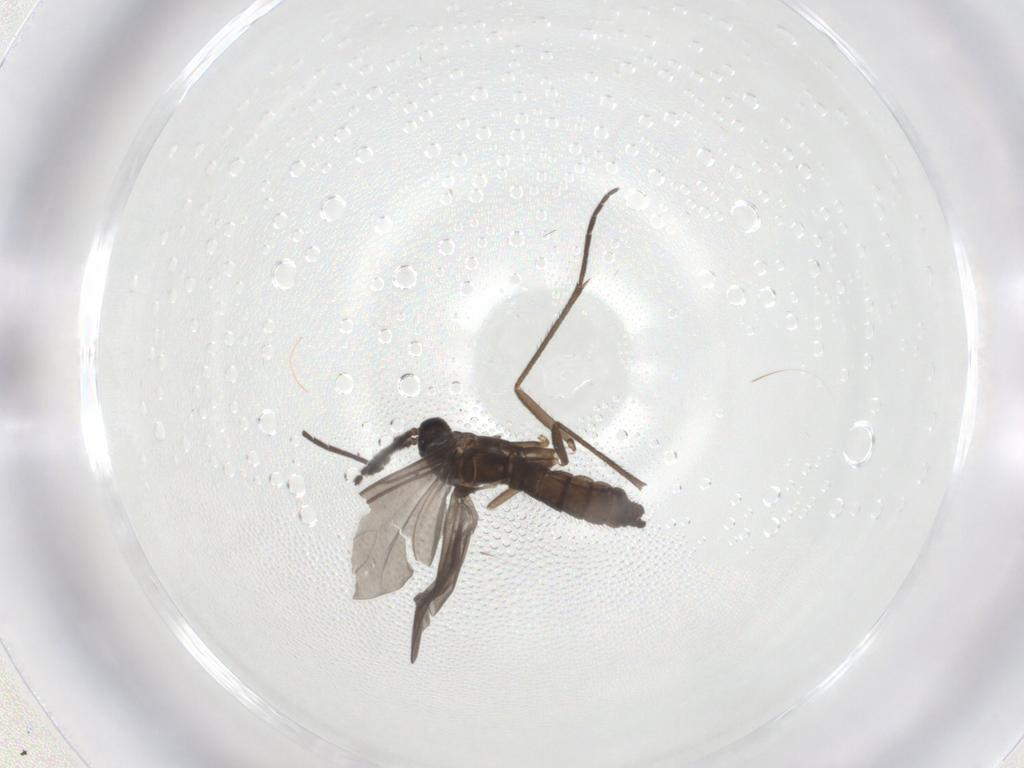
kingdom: Animalia
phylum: Arthropoda
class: Insecta
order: Diptera
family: Sciaridae
